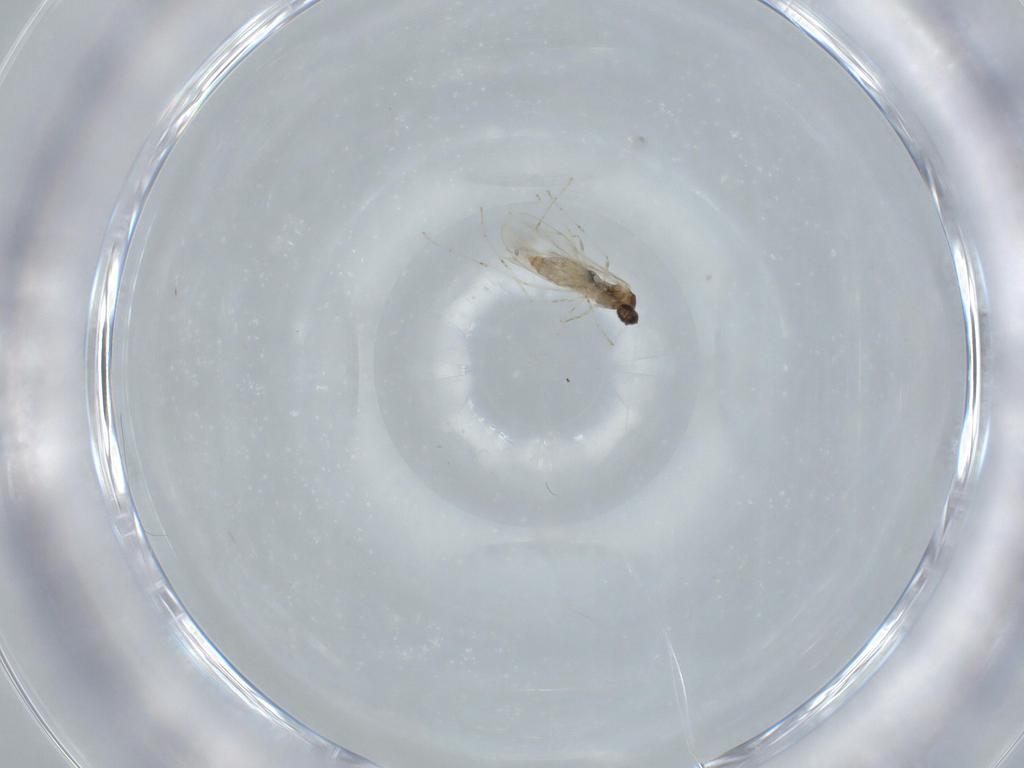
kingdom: Animalia
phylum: Arthropoda
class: Insecta
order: Diptera
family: Cecidomyiidae
